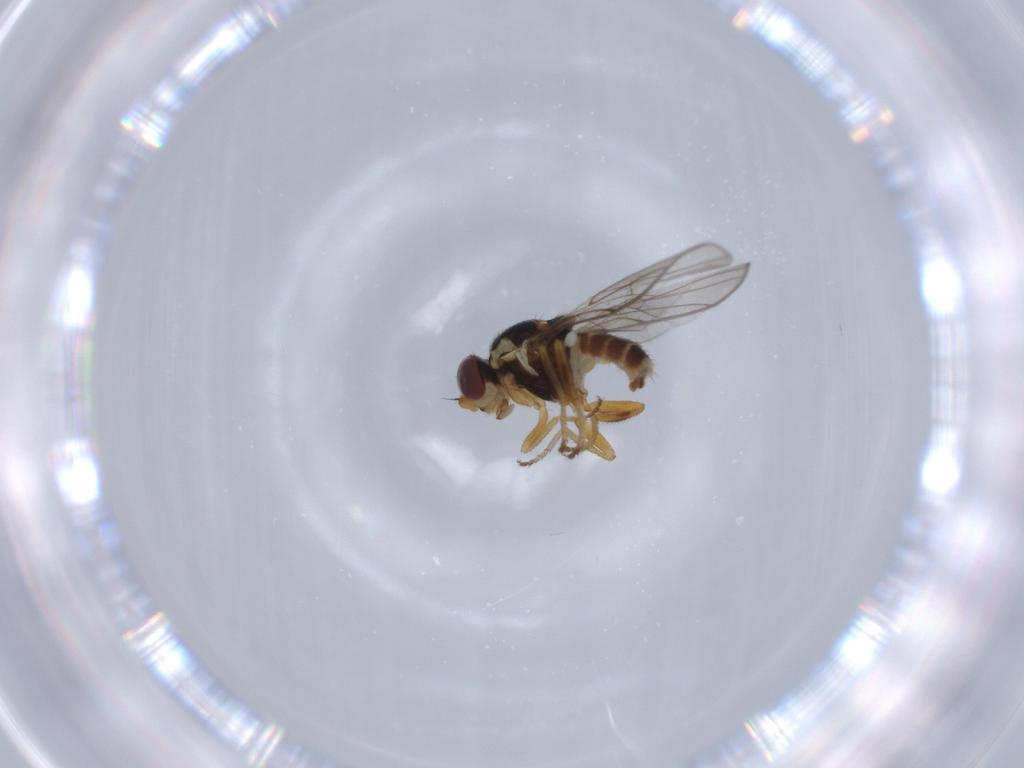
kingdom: Animalia
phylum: Arthropoda
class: Insecta
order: Diptera
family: Chloropidae
